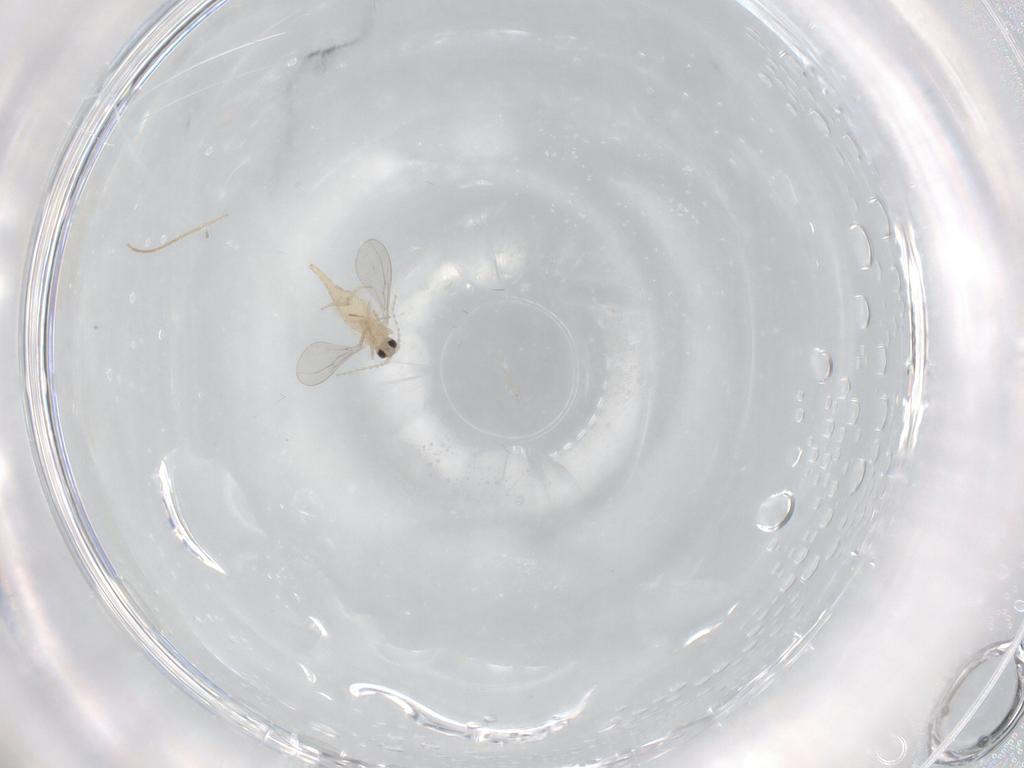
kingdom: Animalia
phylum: Arthropoda
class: Insecta
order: Diptera
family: Cecidomyiidae
